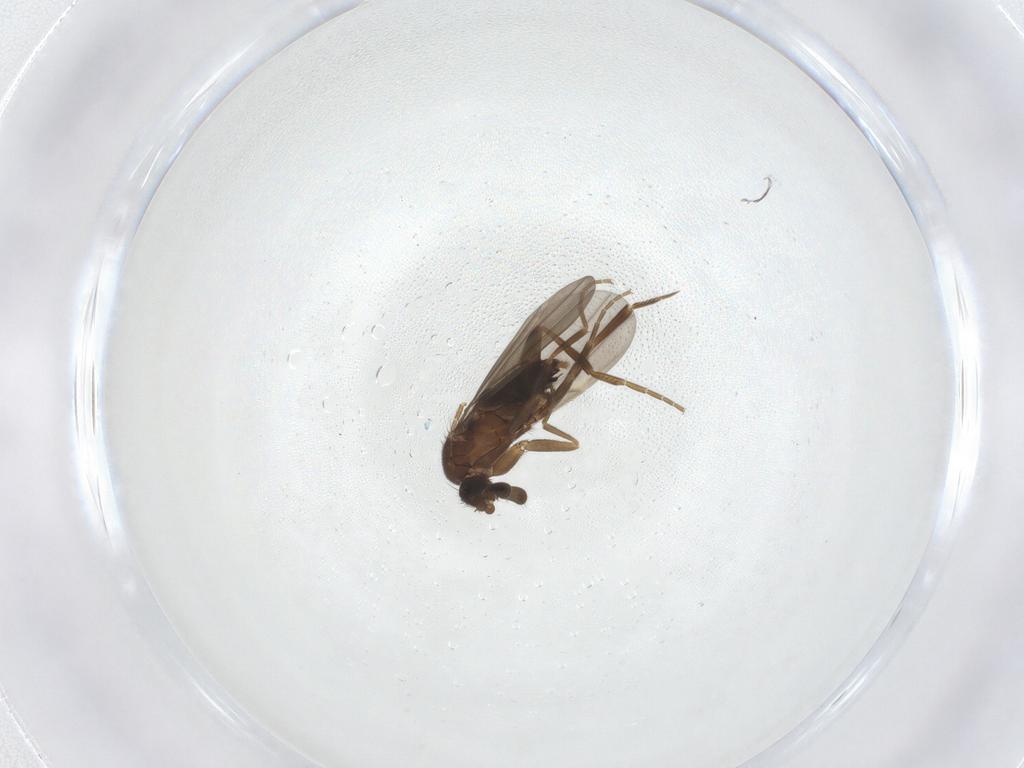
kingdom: Animalia
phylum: Arthropoda
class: Insecta
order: Diptera
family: Phoridae
